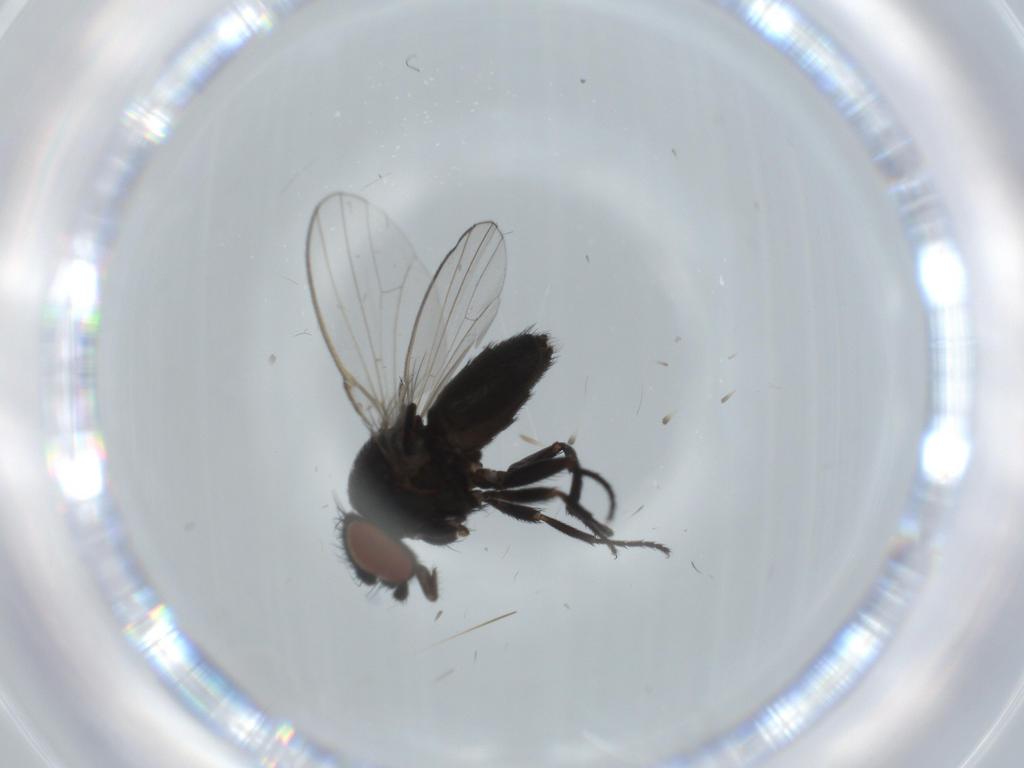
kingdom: Animalia
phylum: Arthropoda
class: Insecta
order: Diptera
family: Milichiidae
